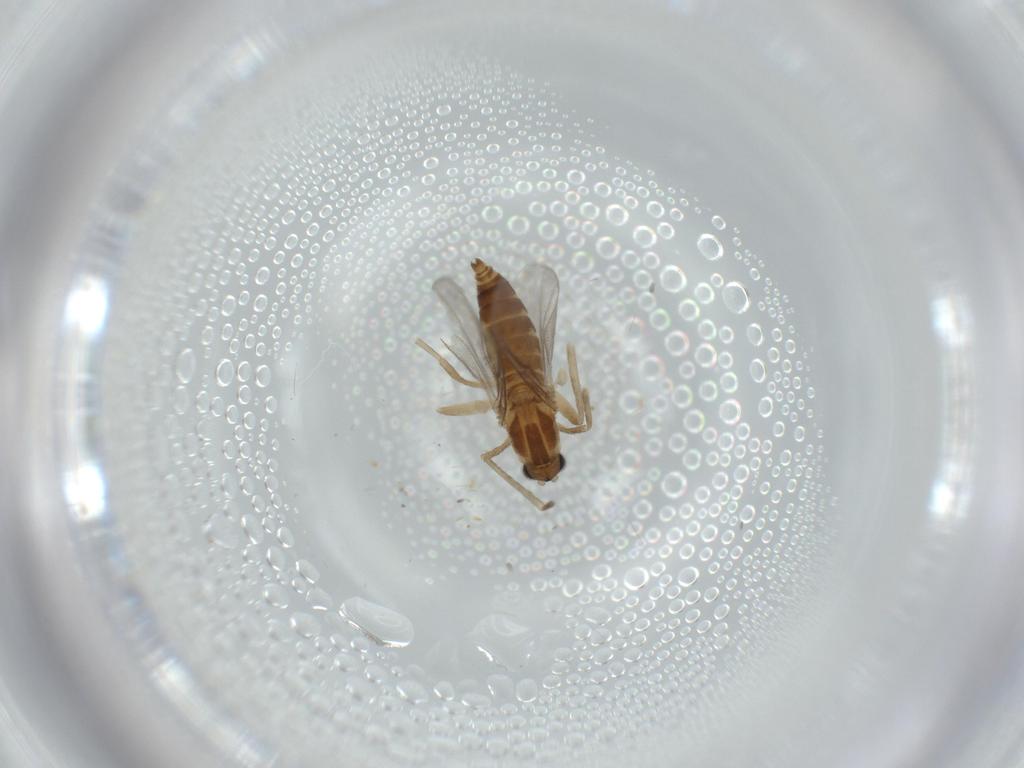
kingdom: Animalia
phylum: Arthropoda
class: Insecta
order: Diptera
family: Cecidomyiidae
